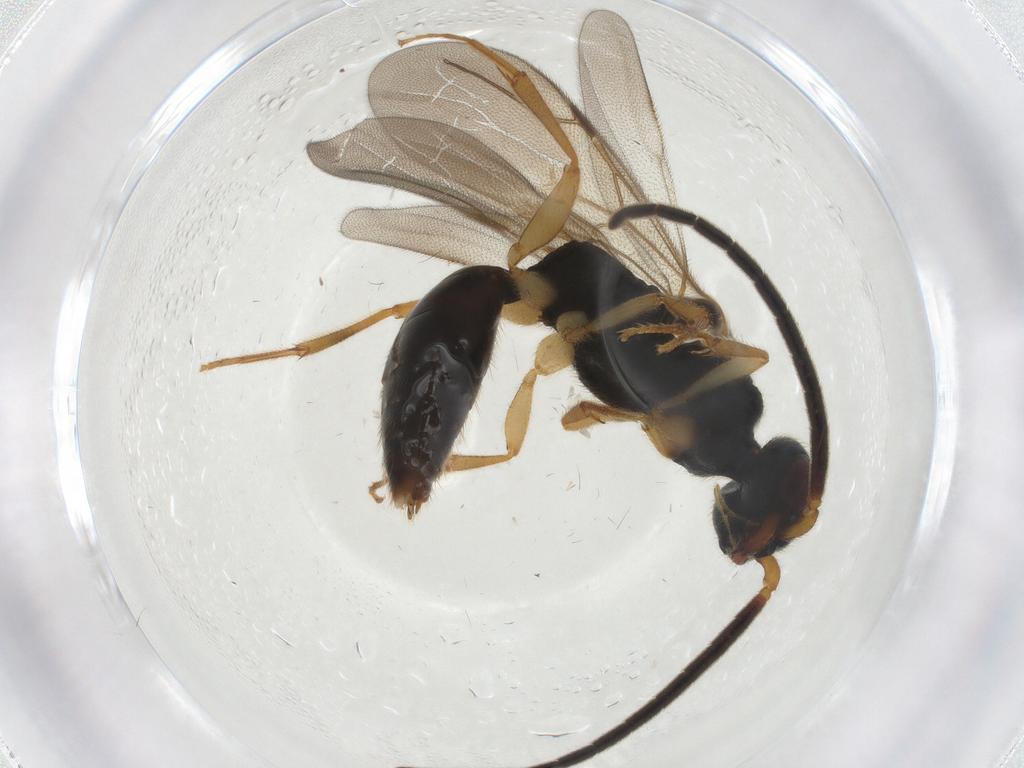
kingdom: Animalia
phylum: Arthropoda
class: Insecta
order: Hymenoptera
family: Bethylidae
